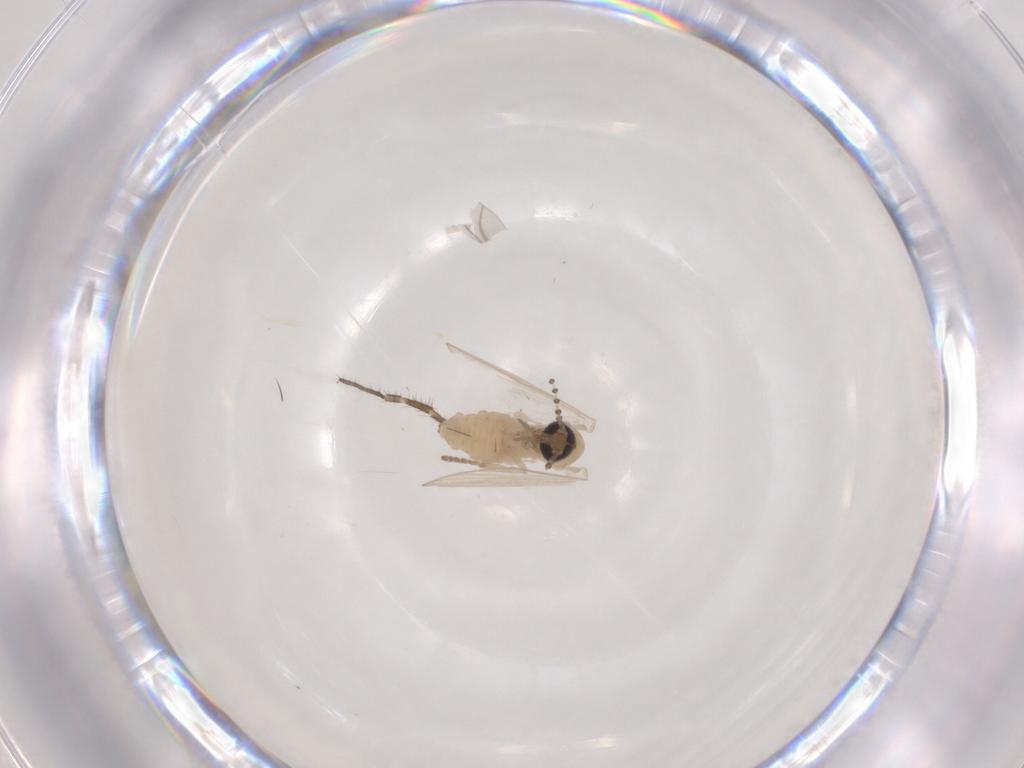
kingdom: Animalia
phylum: Arthropoda
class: Insecta
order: Diptera
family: Psychodidae
